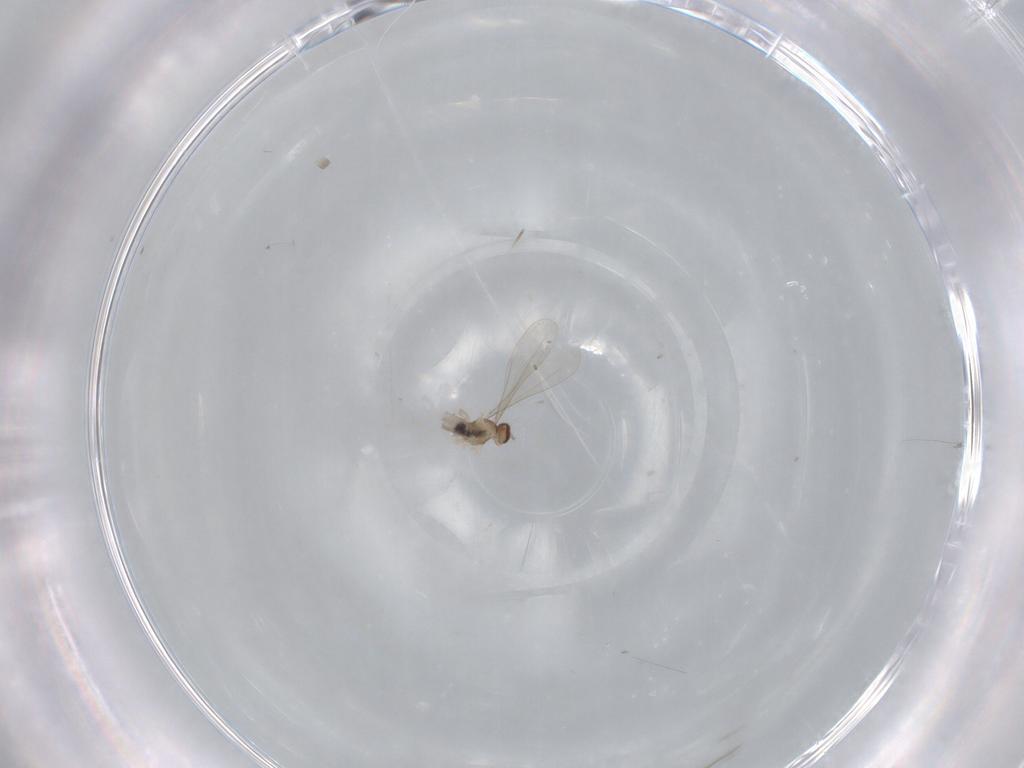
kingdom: Animalia
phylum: Arthropoda
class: Insecta
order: Diptera
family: Cecidomyiidae
